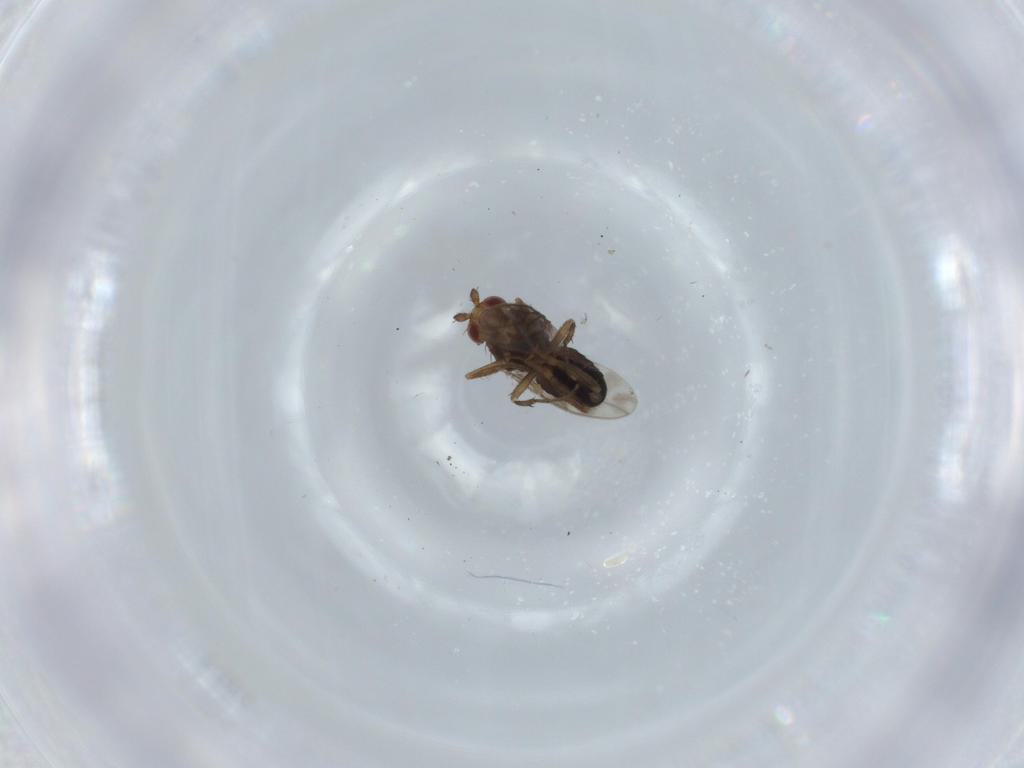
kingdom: Animalia
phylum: Arthropoda
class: Insecta
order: Diptera
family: Sphaeroceridae
